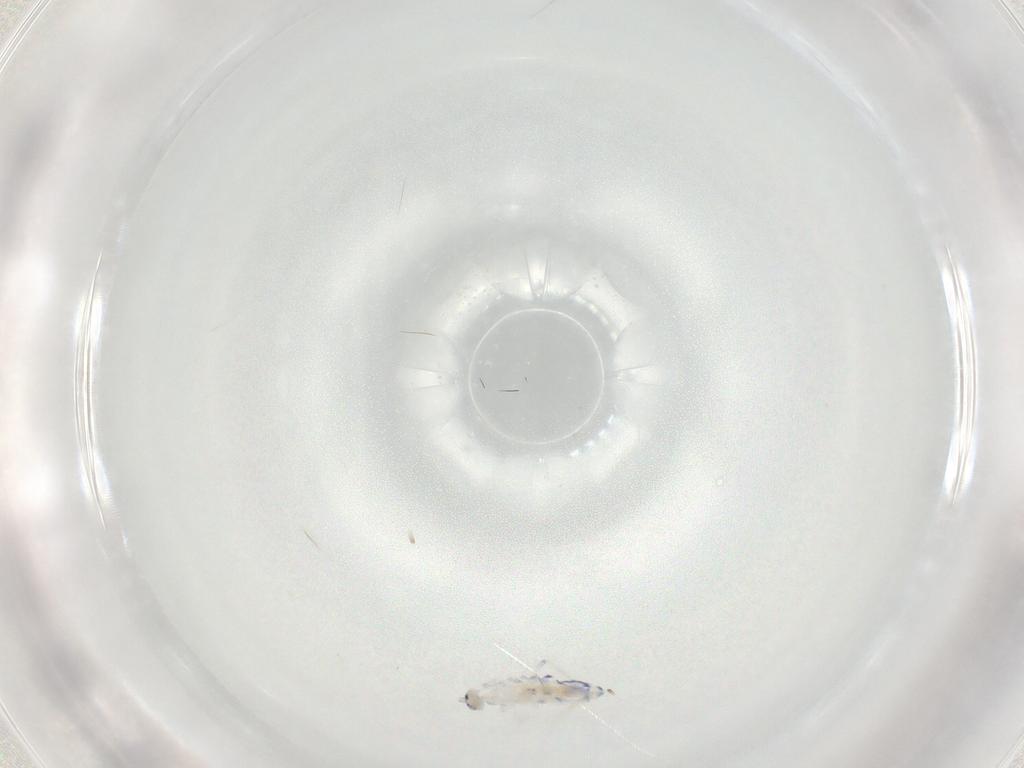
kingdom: Animalia
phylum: Arthropoda
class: Collembola
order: Entomobryomorpha
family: Entomobryidae
